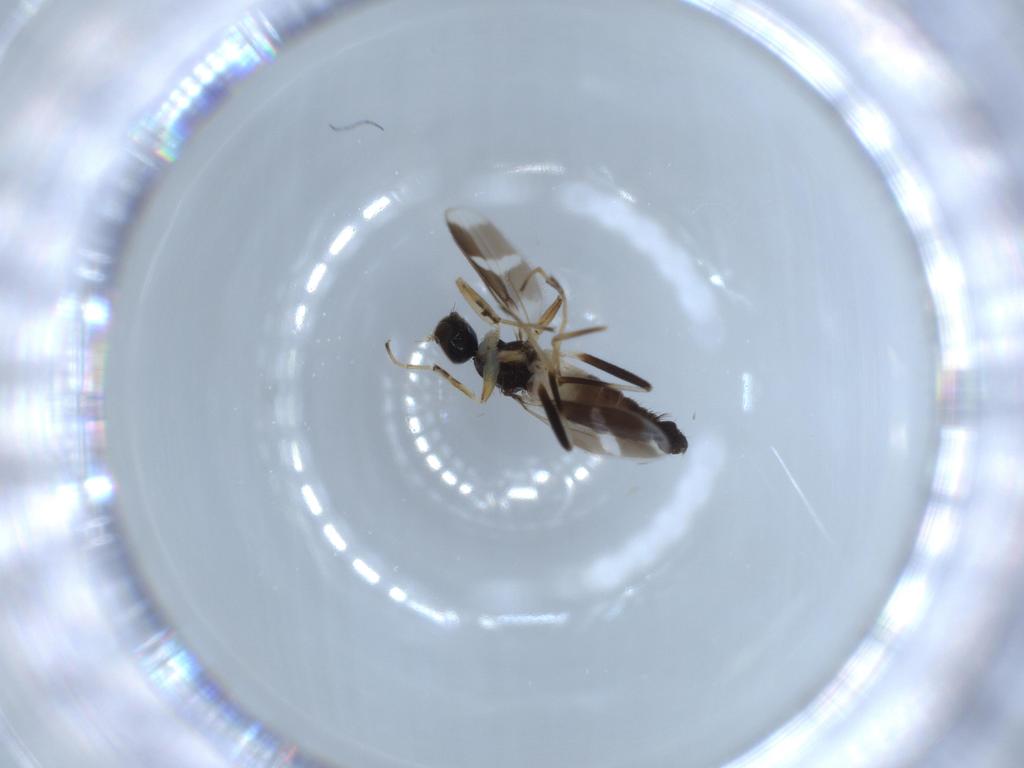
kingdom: Animalia
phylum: Arthropoda
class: Insecta
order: Diptera
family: Hybotidae
